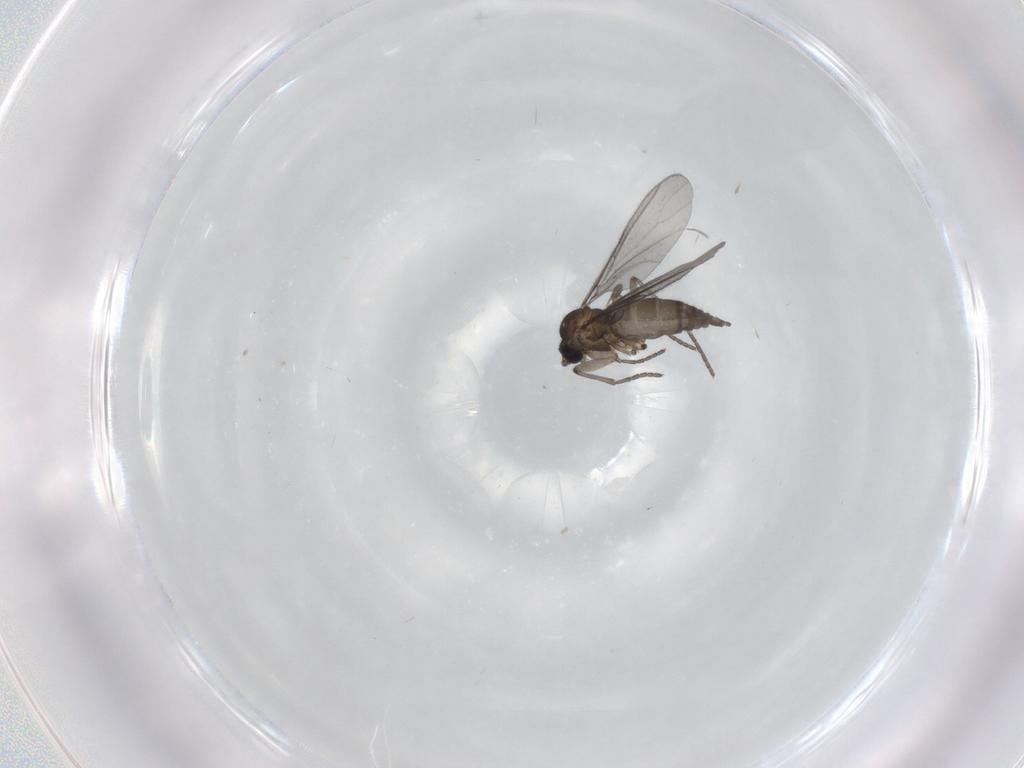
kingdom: Animalia
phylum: Arthropoda
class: Insecta
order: Diptera
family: Sciaridae
